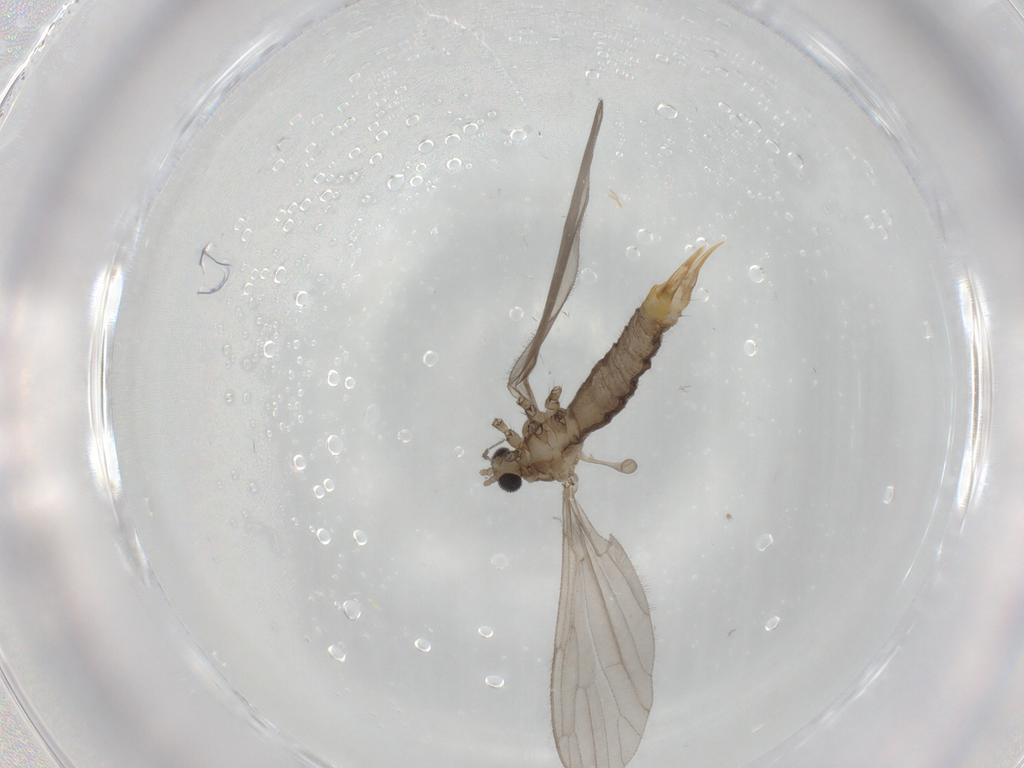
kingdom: Animalia
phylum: Arthropoda
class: Insecta
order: Diptera
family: Limoniidae
